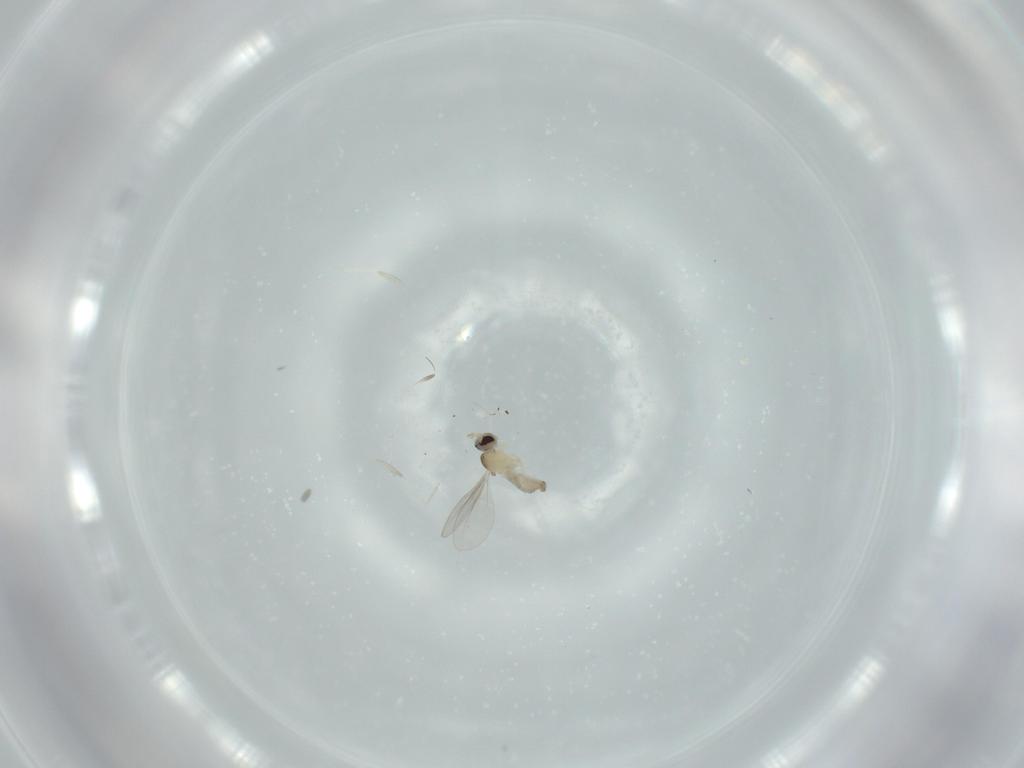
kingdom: Animalia
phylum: Arthropoda
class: Insecta
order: Diptera
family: Cecidomyiidae
